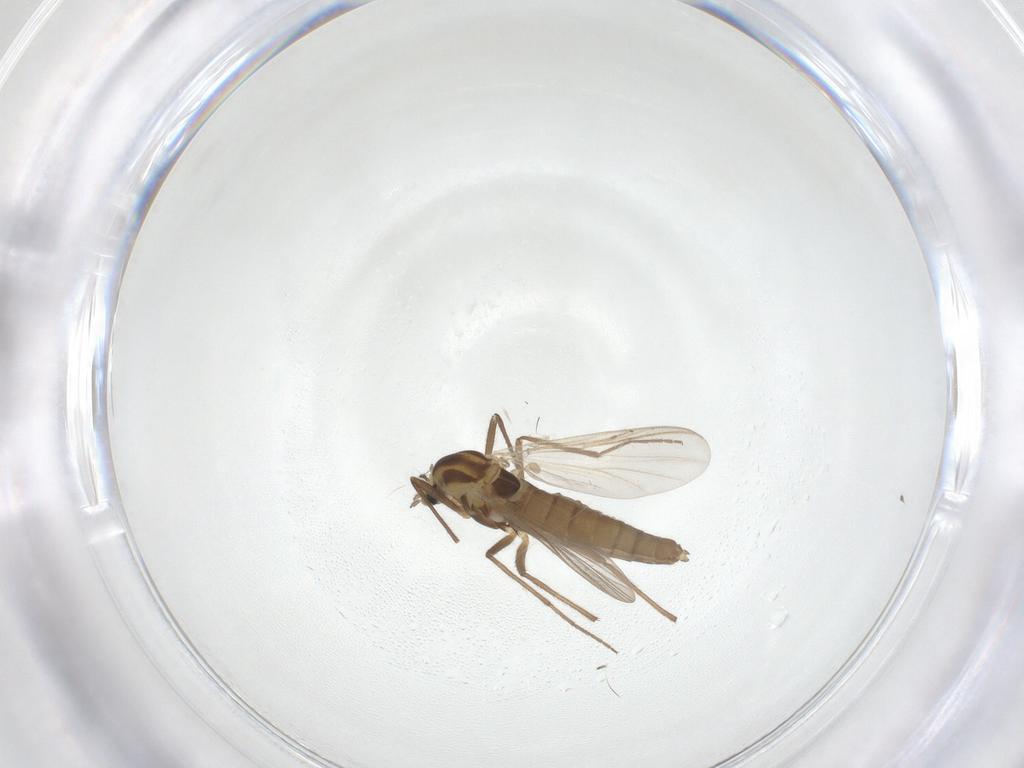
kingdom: Animalia
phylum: Arthropoda
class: Insecta
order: Diptera
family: Chironomidae
